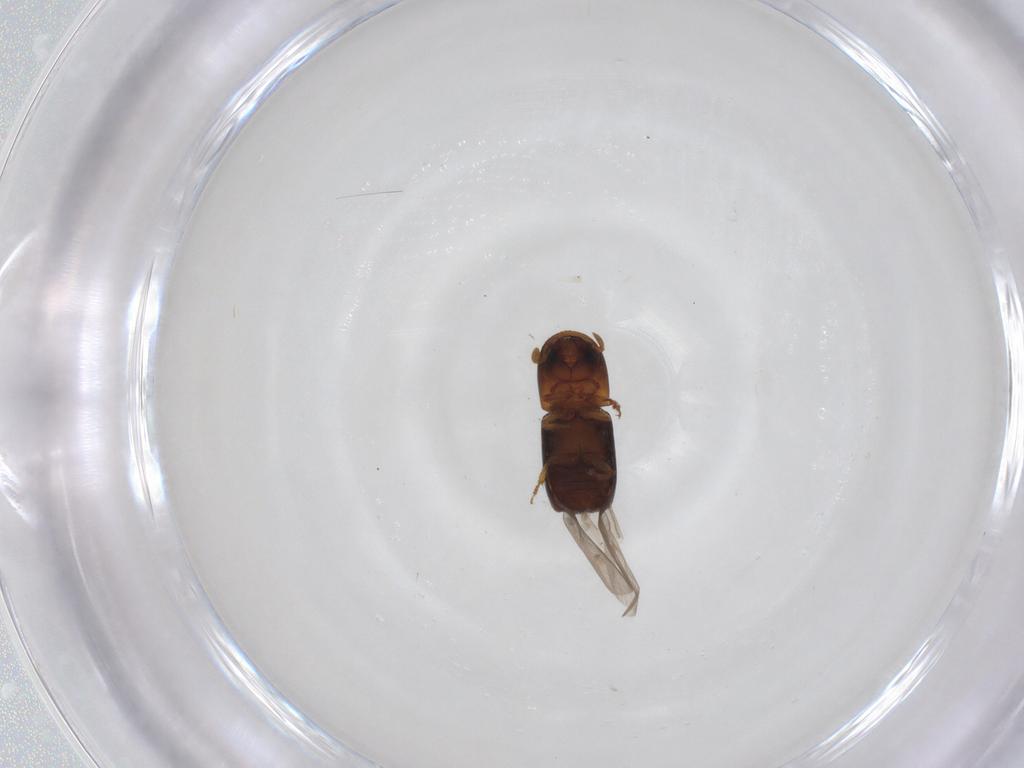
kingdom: Animalia
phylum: Arthropoda
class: Insecta
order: Coleoptera
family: Curculionidae
